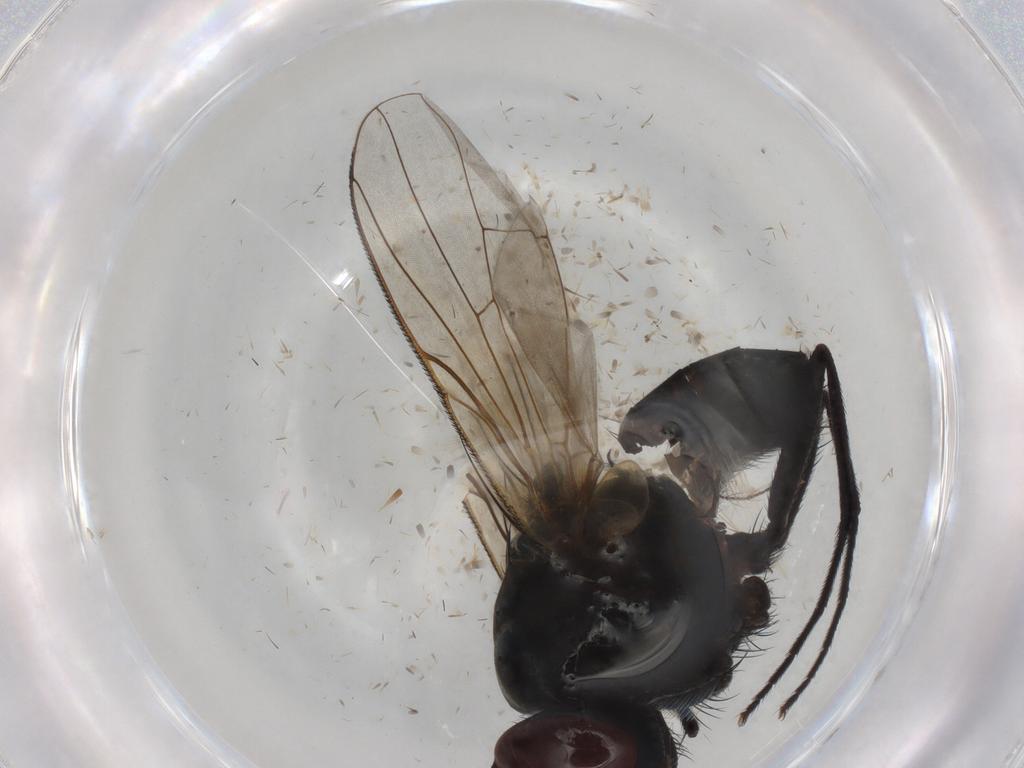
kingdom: Animalia
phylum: Arthropoda
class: Insecta
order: Diptera
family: Muscidae
